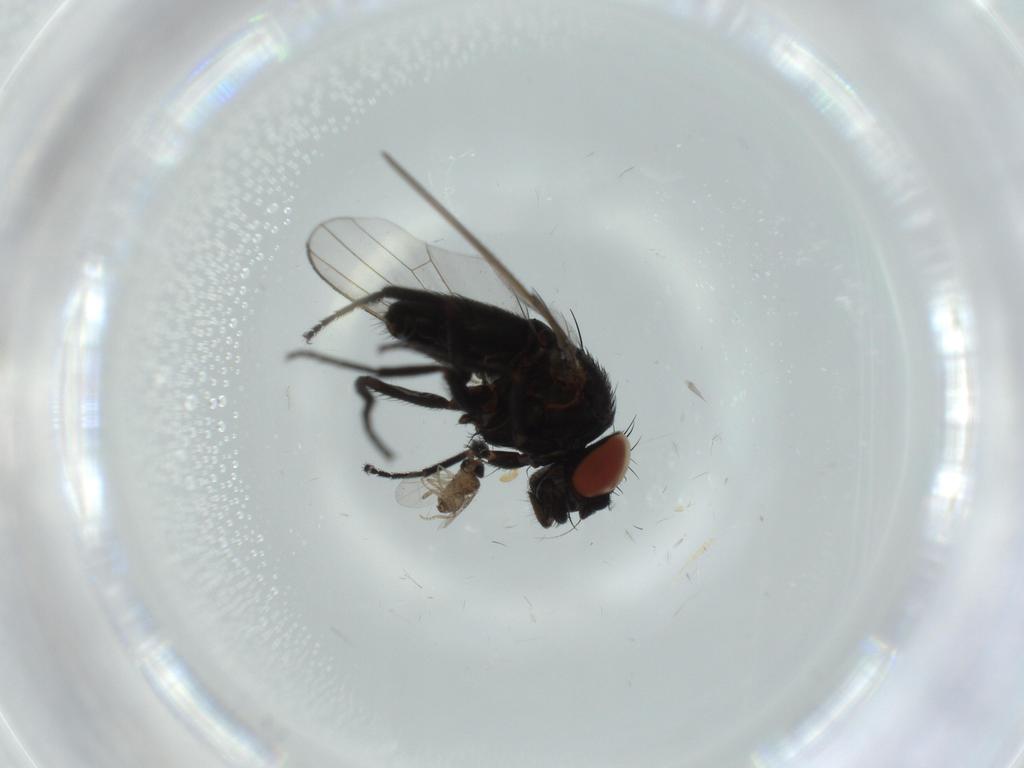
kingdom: Animalia
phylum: Arthropoda
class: Insecta
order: Diptera
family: Milichiidae
